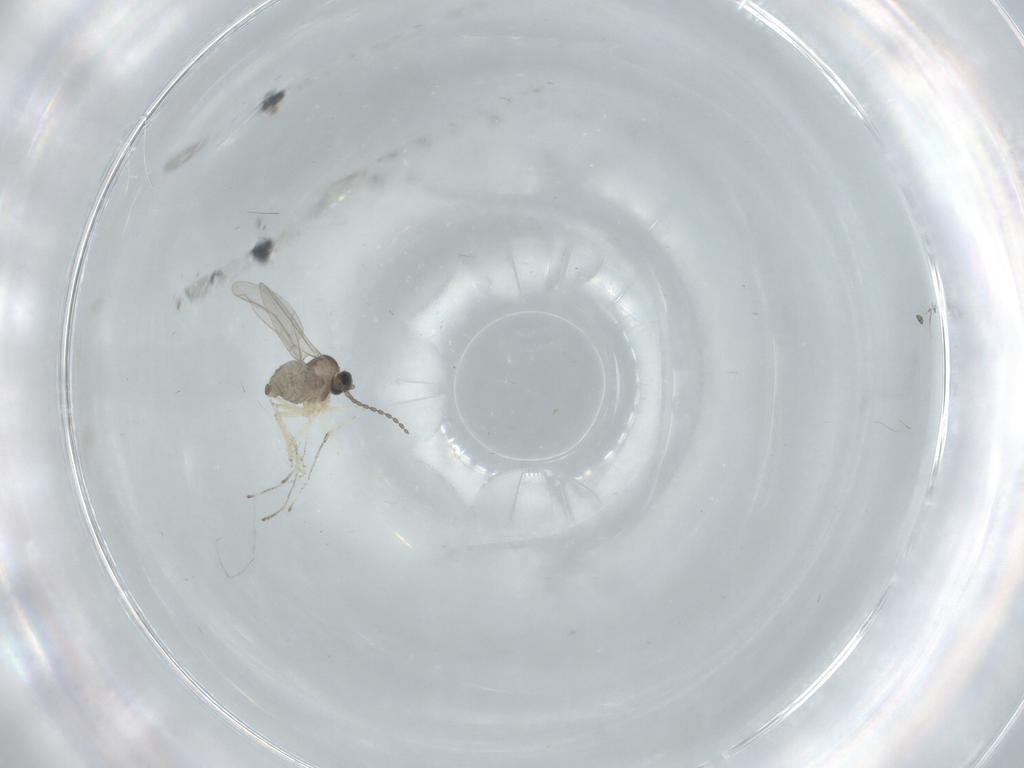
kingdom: Animalia
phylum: Arthropoda
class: Insecta
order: Diptera
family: Cecidomyiidae
